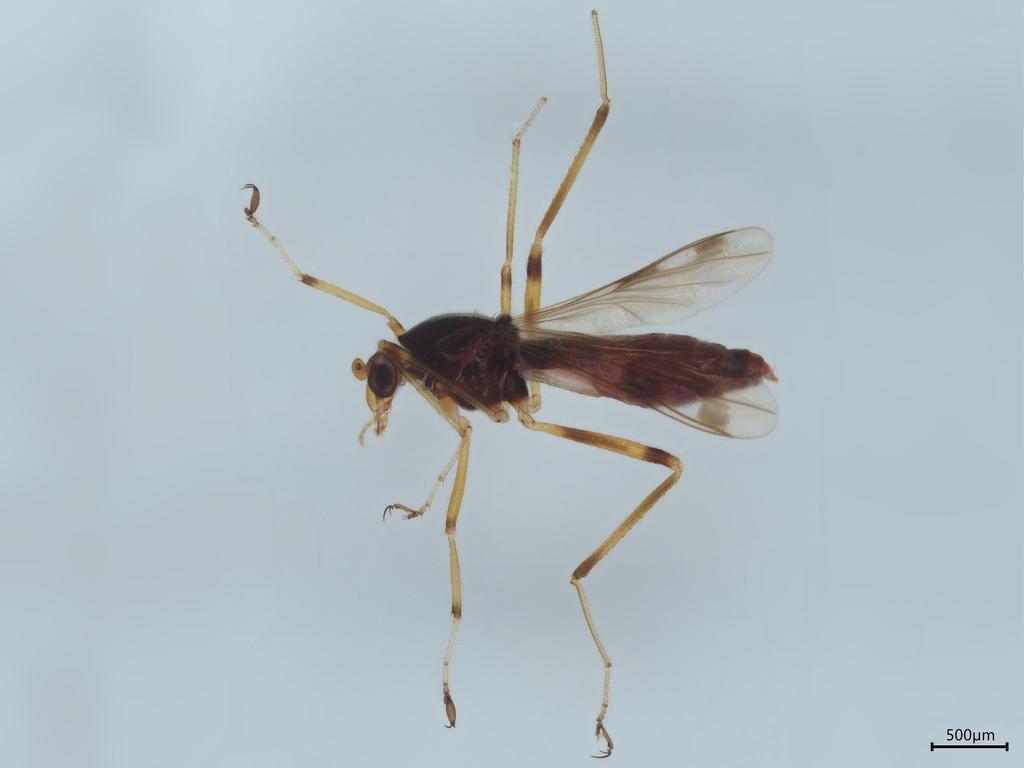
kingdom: Animalia
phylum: Arthropoda
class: Insecta
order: Diptera
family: Ceratopogonidae
